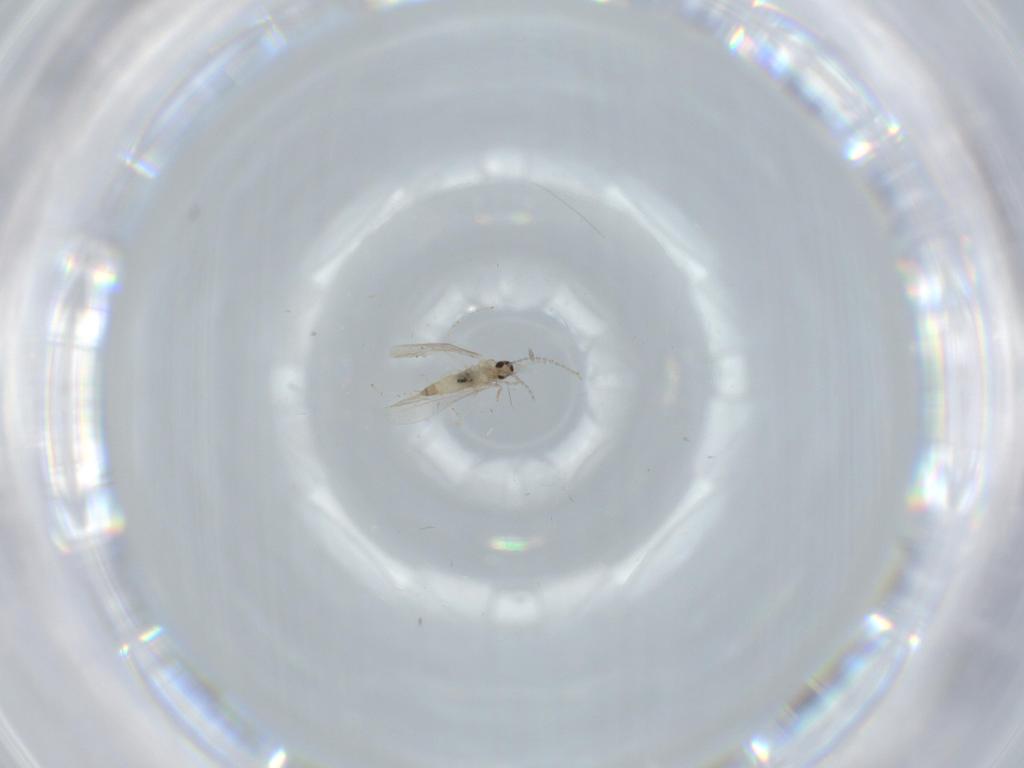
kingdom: Animalia
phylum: Arthropoda
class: Insecta
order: Diptera
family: Cecidomyiidae
